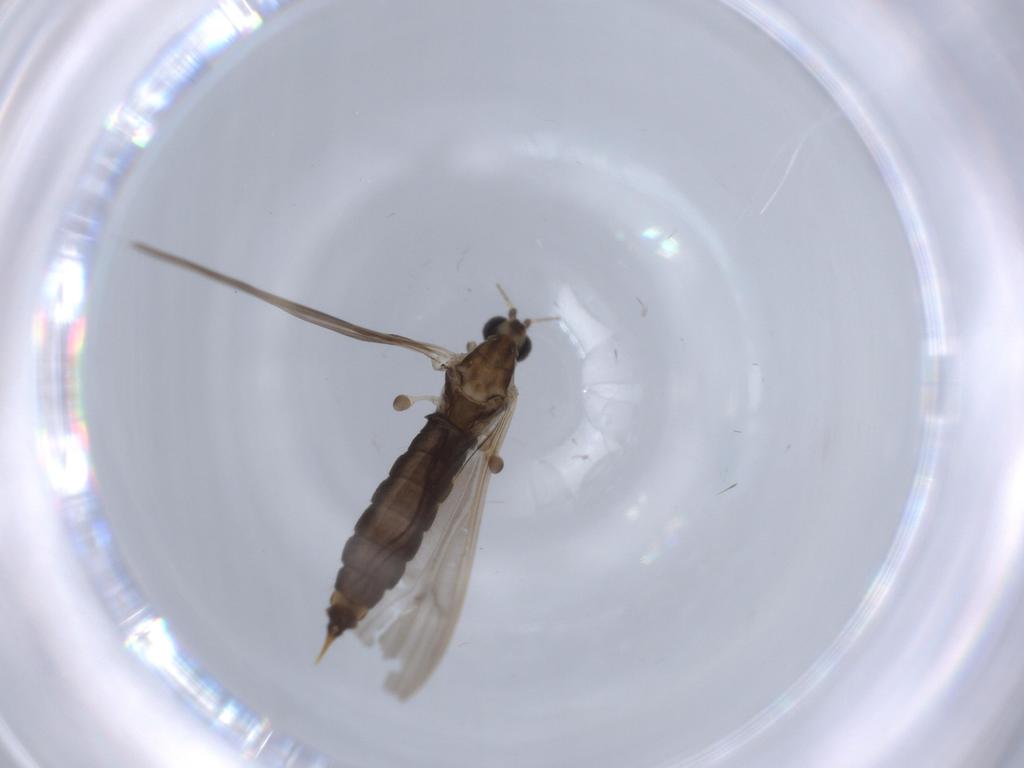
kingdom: Animalia
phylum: Arthropoda
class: Insecta
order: Diptera
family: Limoniidae
